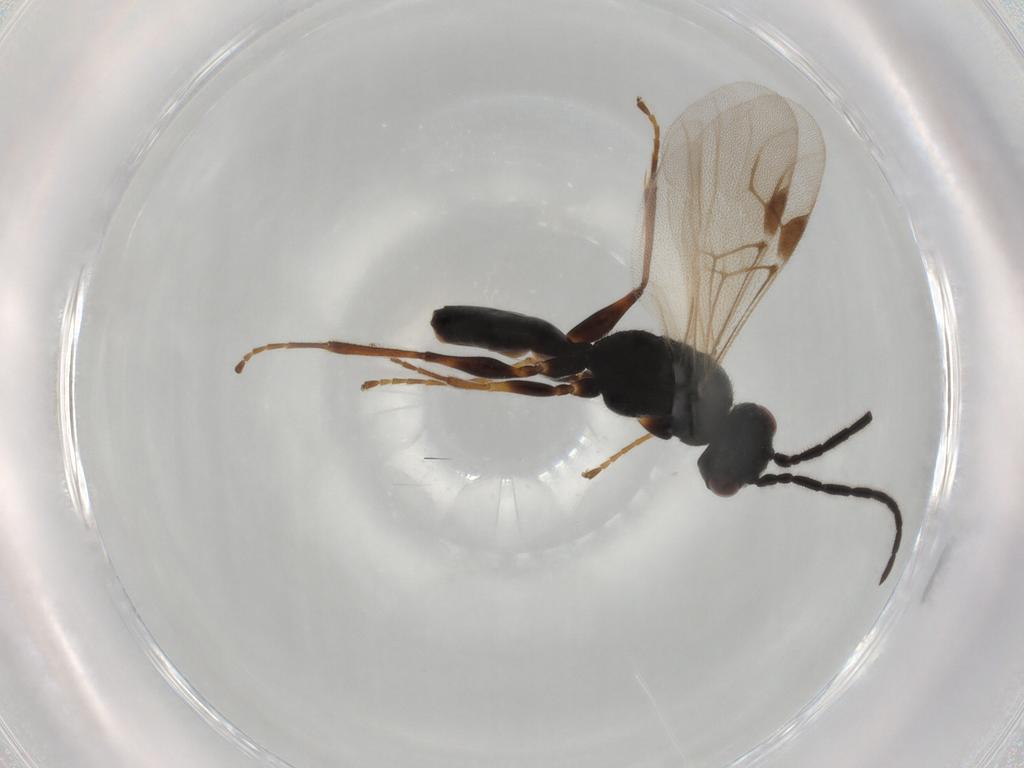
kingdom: Animalia
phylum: Arthropoda
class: Insecta
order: Hymenoptera
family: Dryinidae
